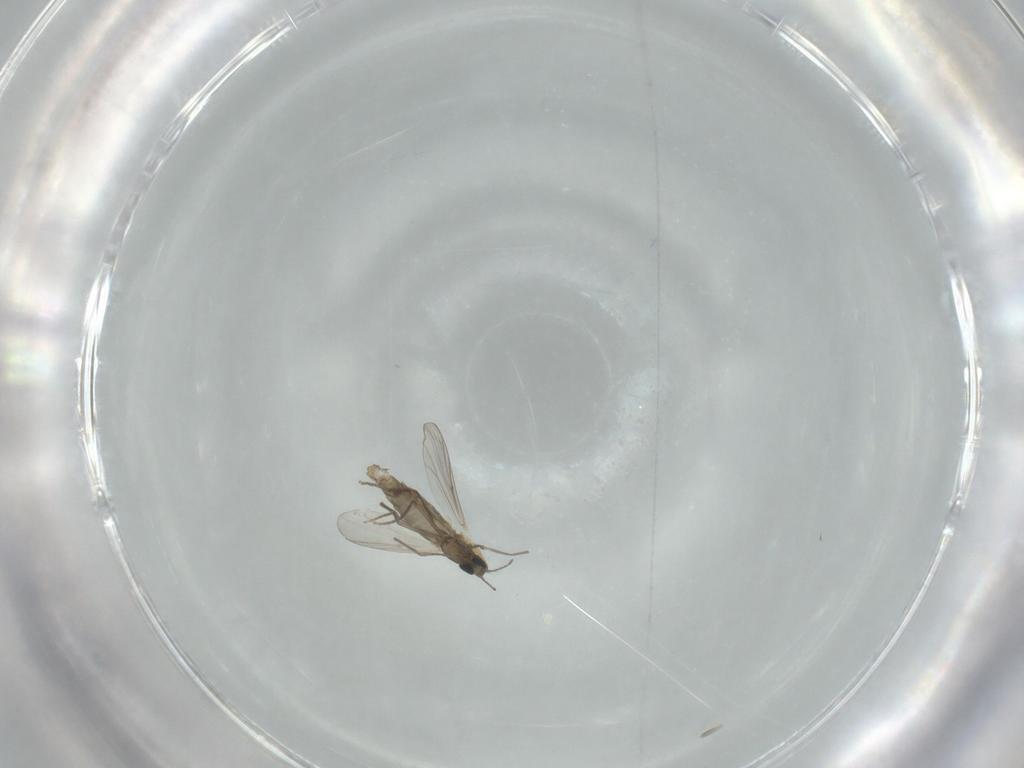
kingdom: Animalia
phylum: Arthropoda
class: Insecta
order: Diptera
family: Chironomidae
